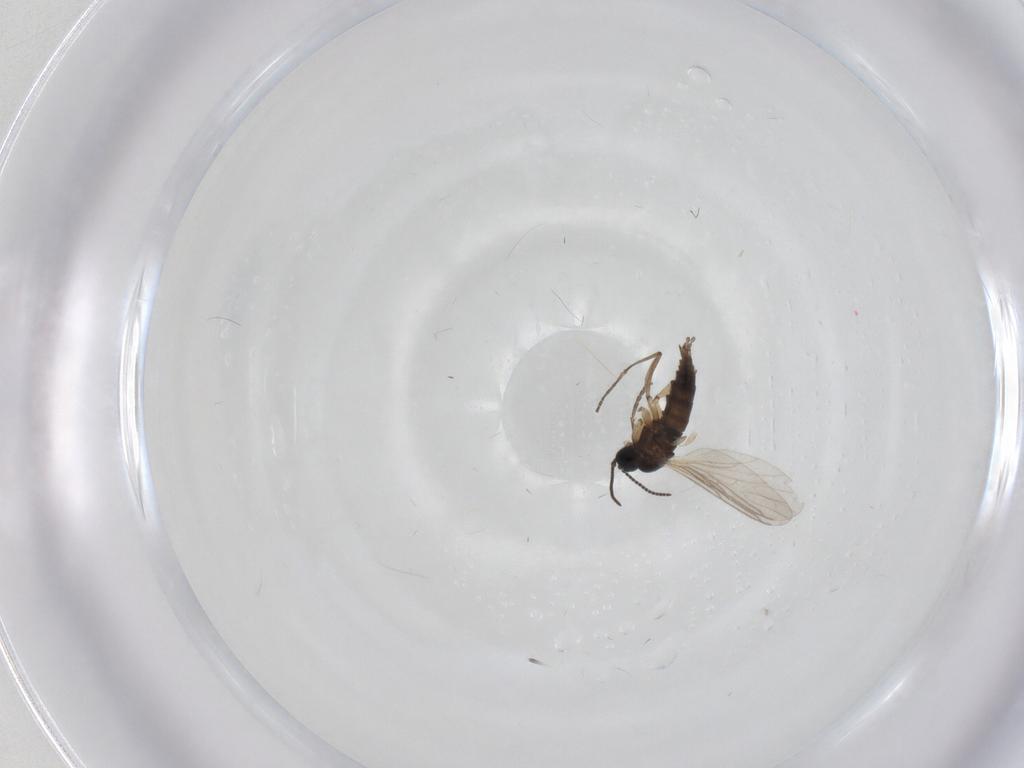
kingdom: Animalia
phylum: Arthropoda
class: Insecta
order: Diptera
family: Sciaridae
